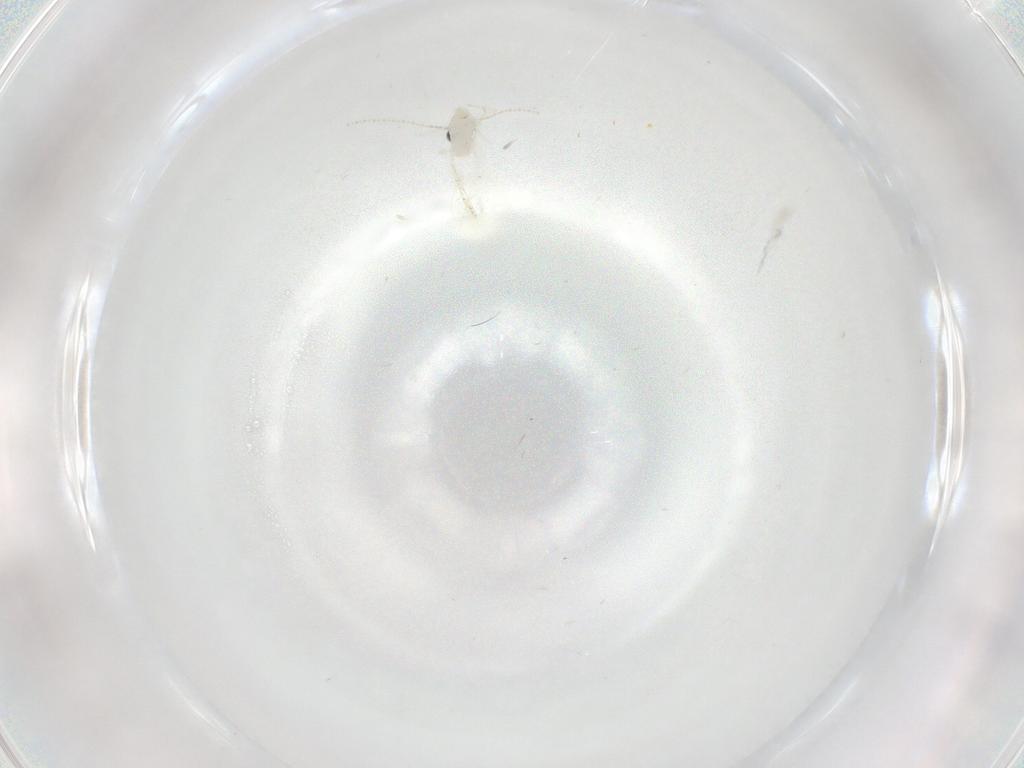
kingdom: Animalia
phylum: Arthropoda
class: Insecta
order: Diptera
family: Cecidomyiidae
